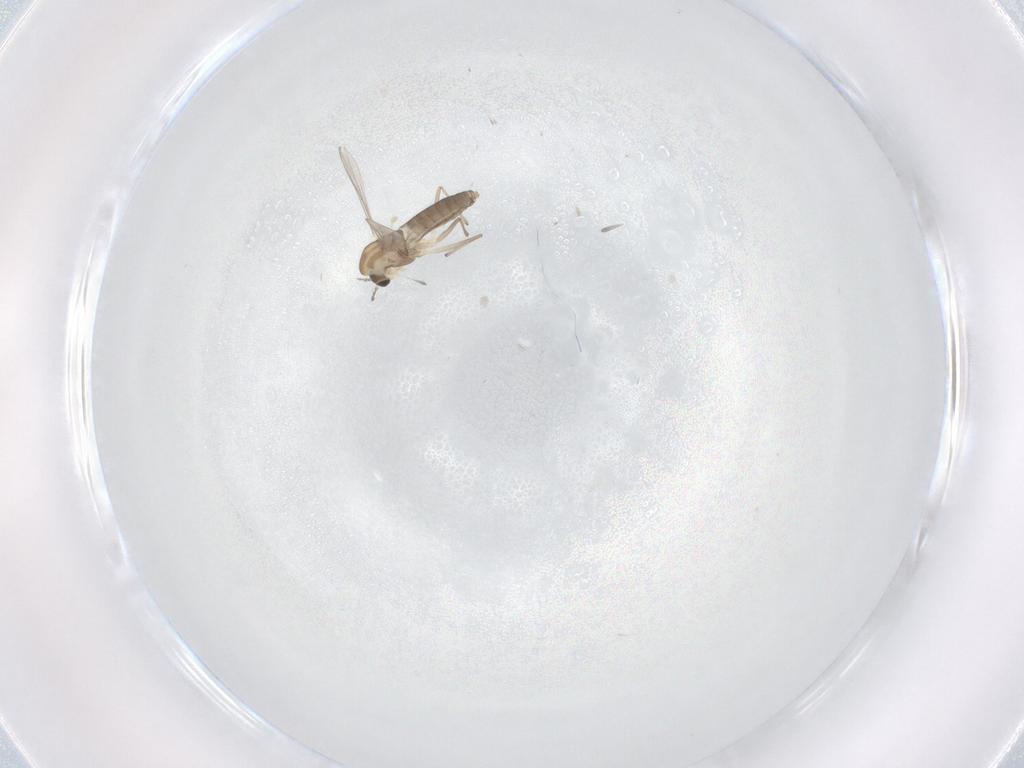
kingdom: Animalia
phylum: Arthropoda
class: Insecta
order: Diptera
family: Chironomidae
